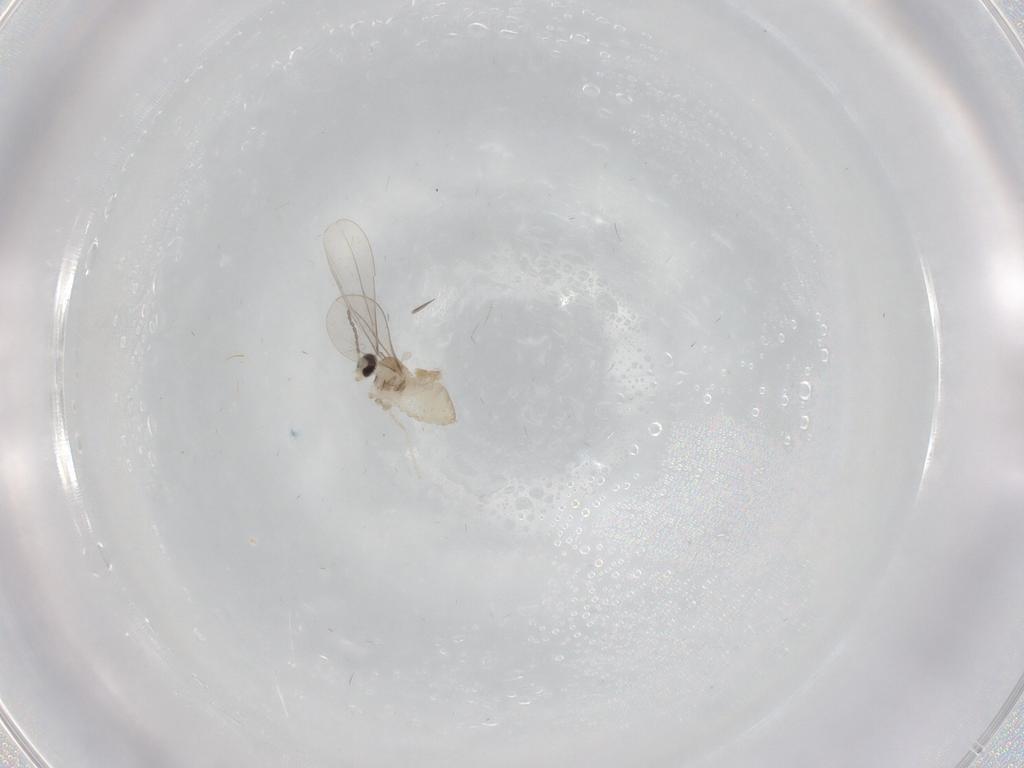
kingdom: Animalia
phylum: Arthropoda
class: Insecta
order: Diptera
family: Cecidomyiidae
